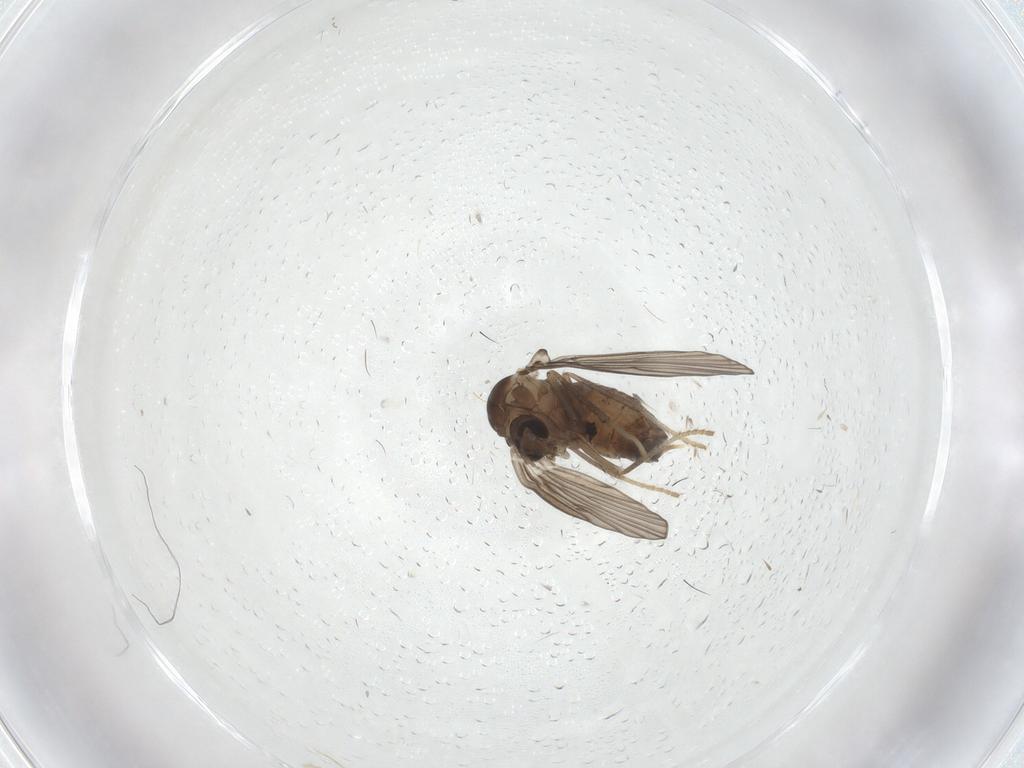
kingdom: Animalia
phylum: Arthropoda
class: Insecta
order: Diptera
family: Psychodidae
